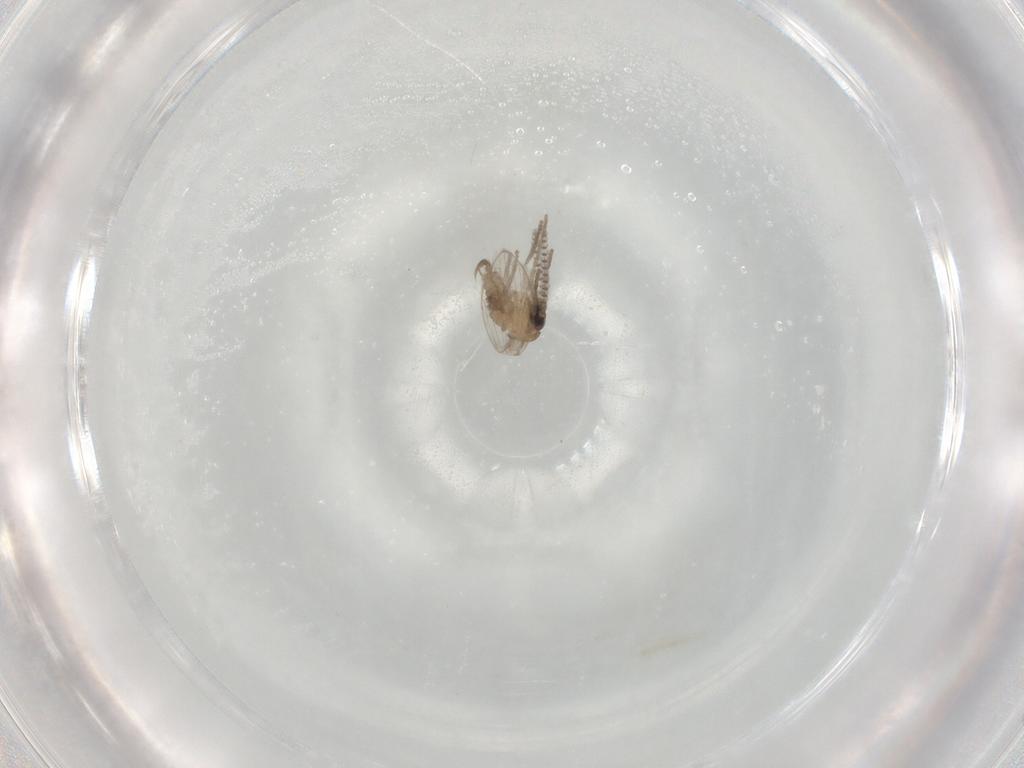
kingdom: Animalia
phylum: Arthropoda
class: Insecta
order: Diptera
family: Psychodidae
